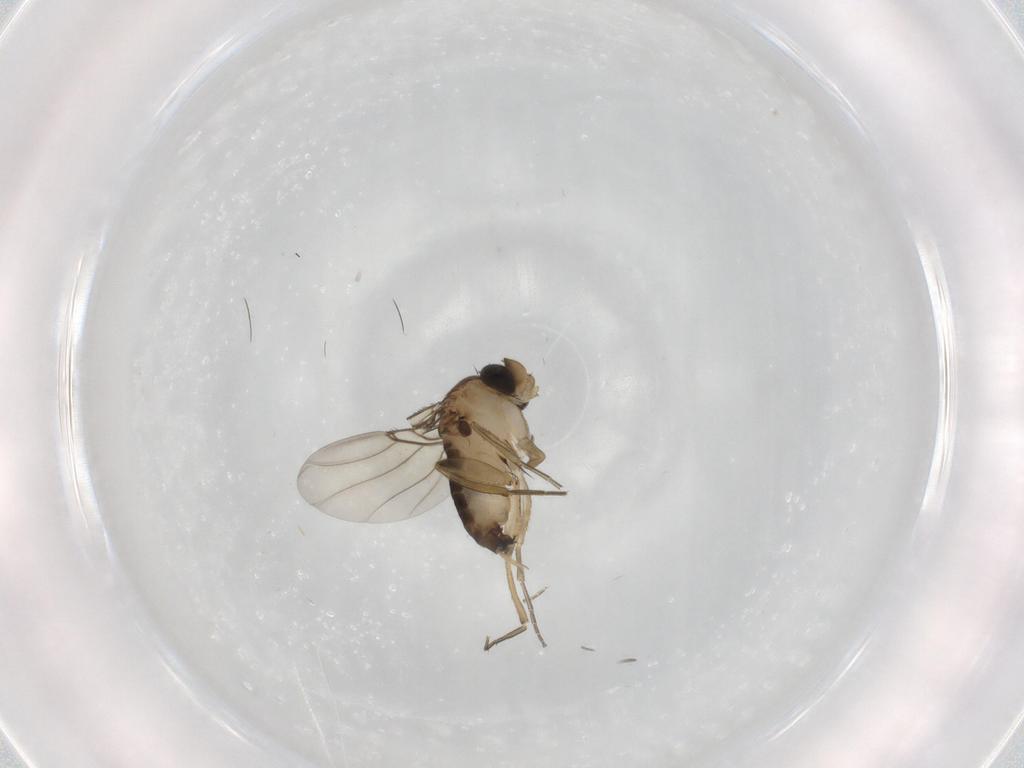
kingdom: Animalia
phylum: Arthropoda
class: Insecta
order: Diptera
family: Phoridae
